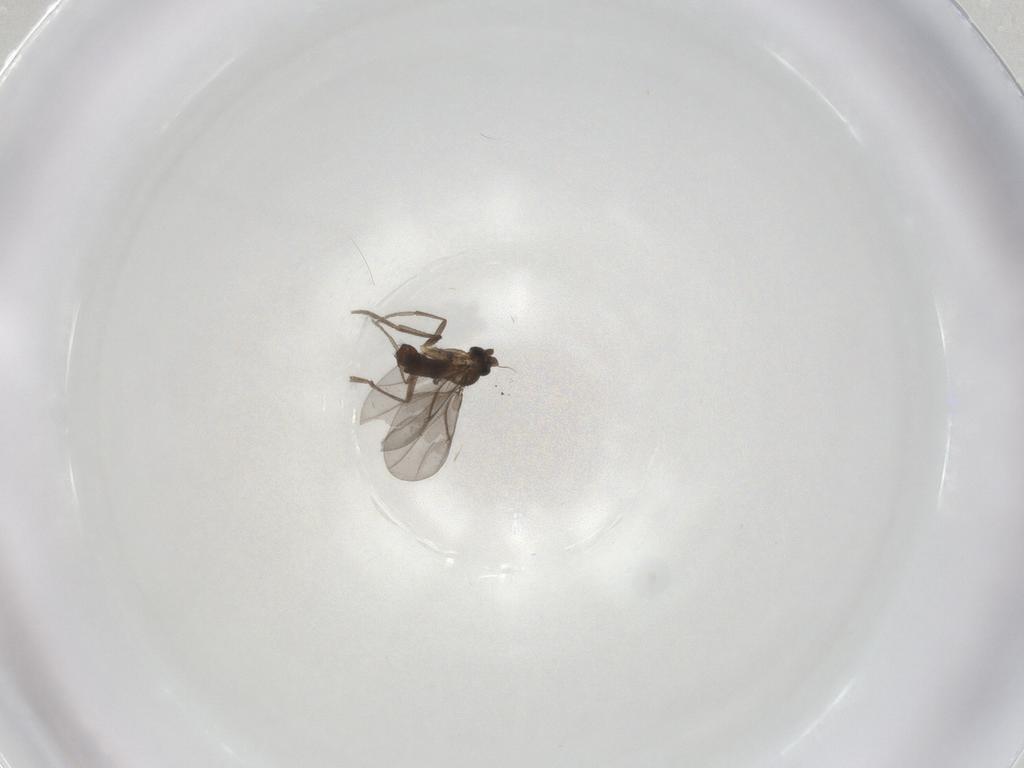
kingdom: Animalia
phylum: Arthropoda
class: Insecta
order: Diptera
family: Phoridae
